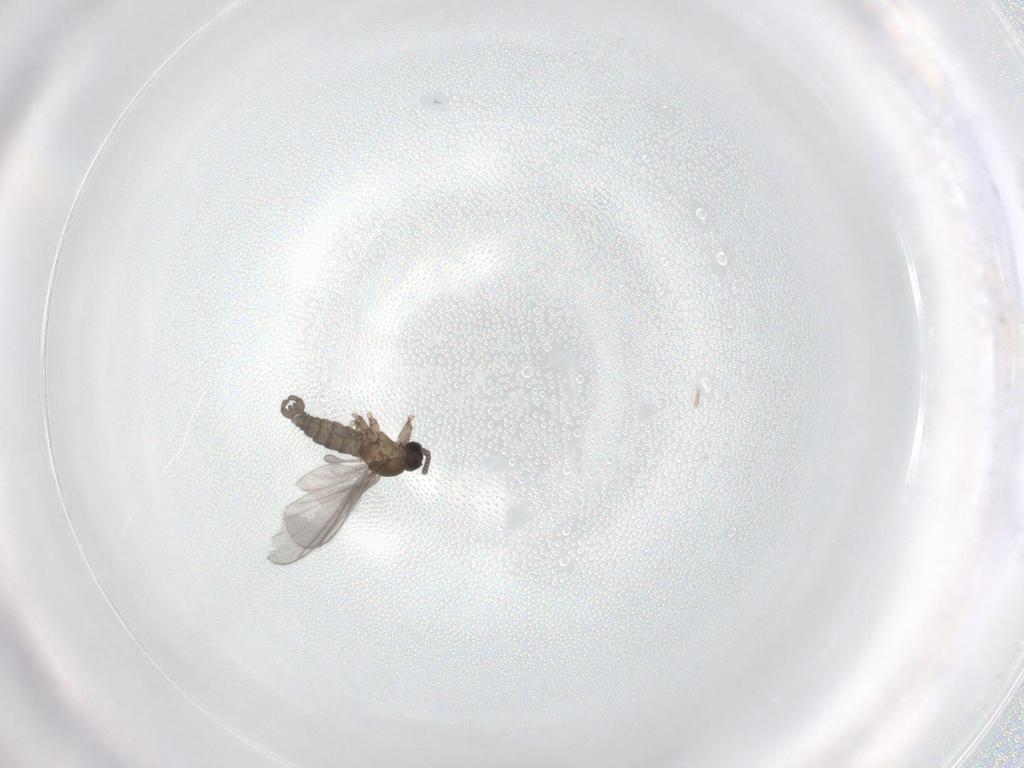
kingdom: Animalia
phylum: Arthropoda
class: Insecta
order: Diptera
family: Sciaridae
